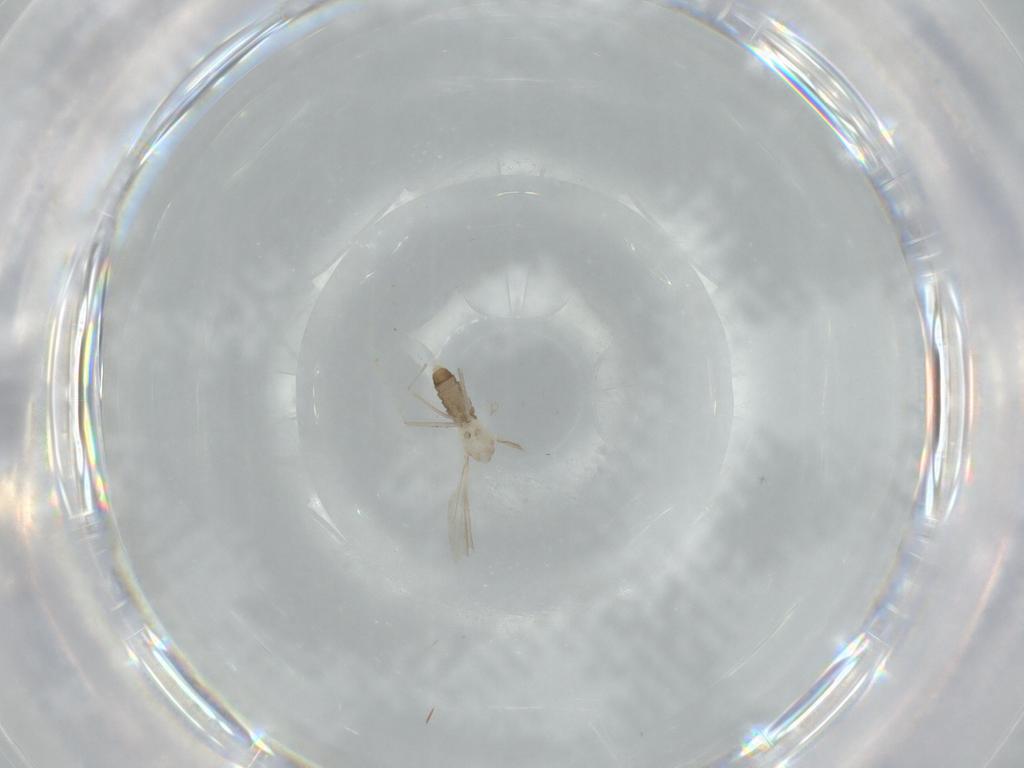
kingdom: Animalia
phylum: Arthropoda
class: Insecta
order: Diptera
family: Cecidomyiidae
